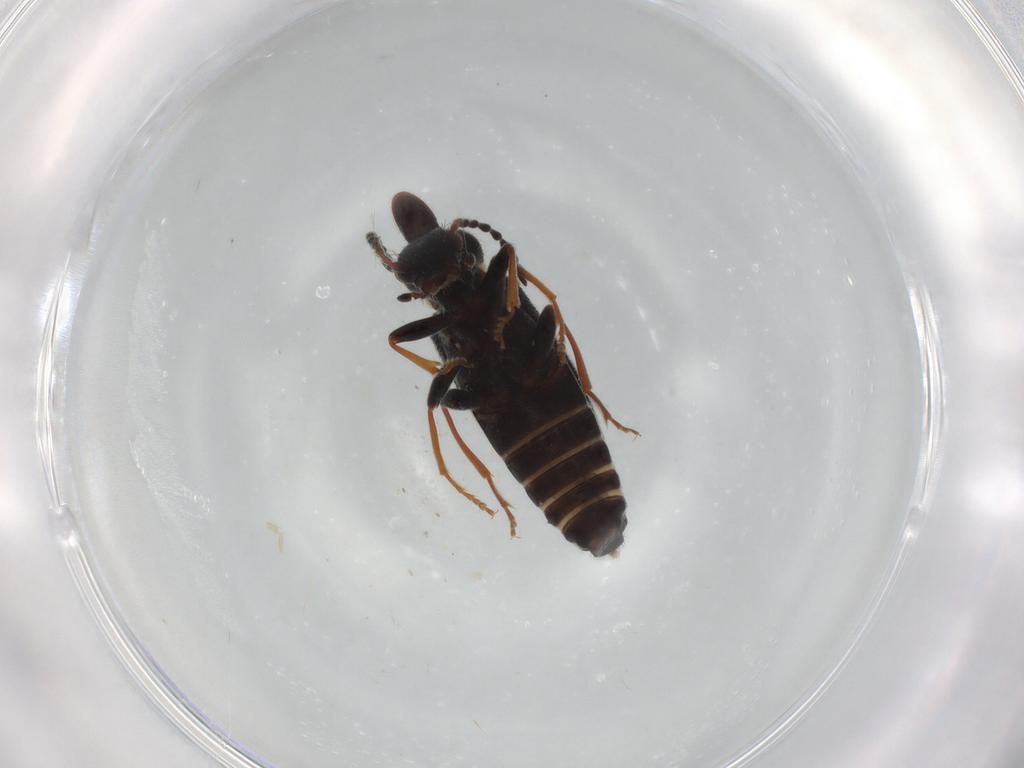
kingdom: Animalia
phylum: Arthropoda
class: Insecta
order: Coleoptera
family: Anthicidae
